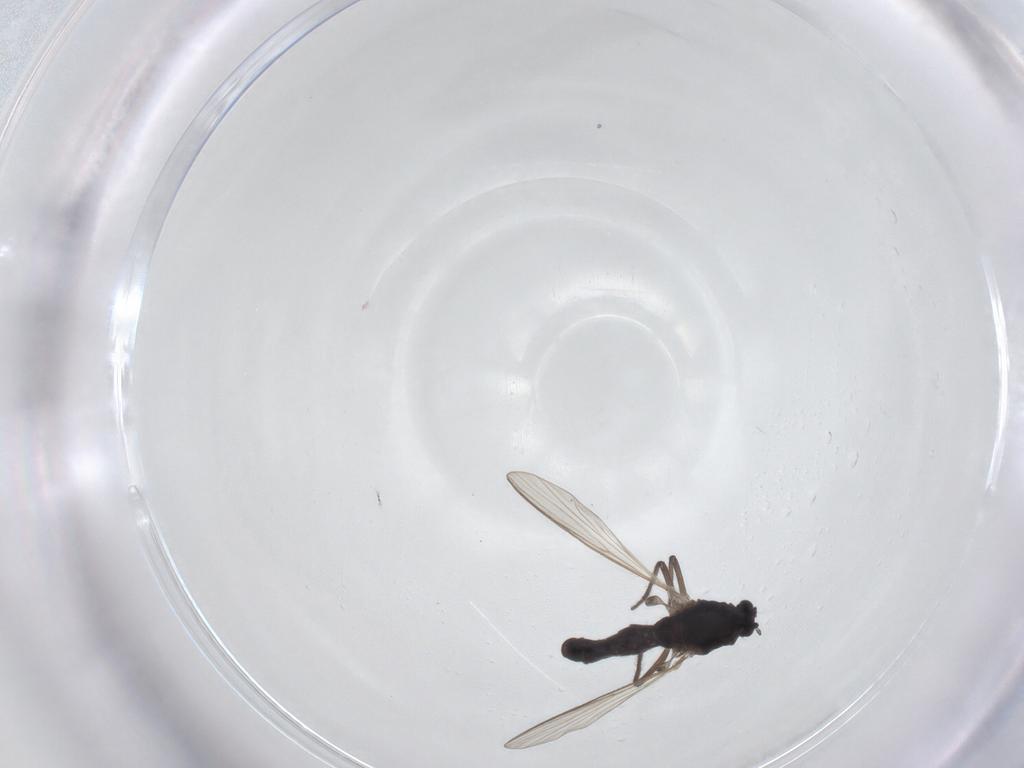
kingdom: Animalia
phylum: Arthropoda
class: Insecta
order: Diptera
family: Chironomidae
